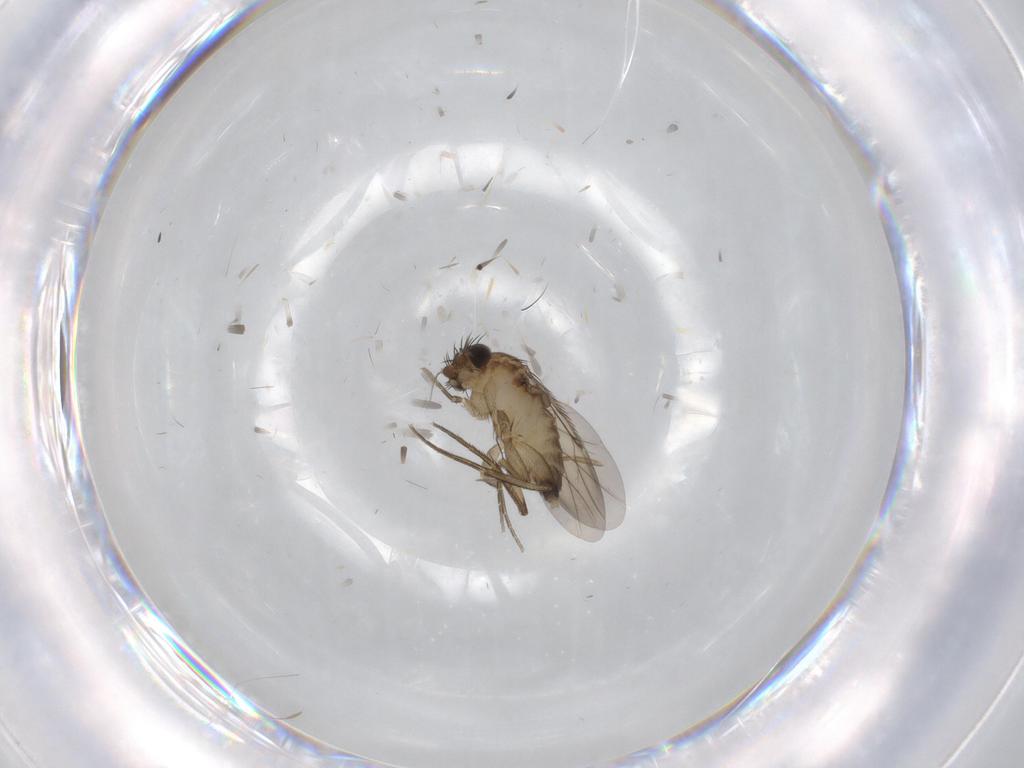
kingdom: Animalia
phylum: Arthropoda
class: Insecta
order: Diptera
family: Phoridae
